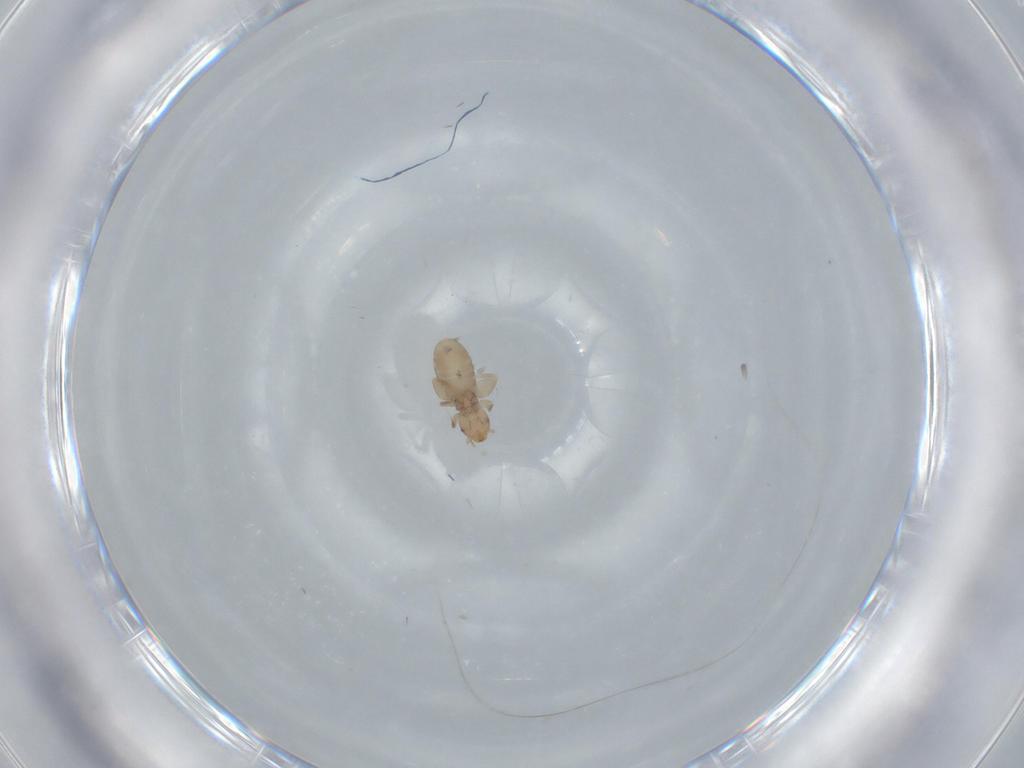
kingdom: Animalia
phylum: Arthropoda
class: Insecta
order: Psocodea
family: Liposcelididae
